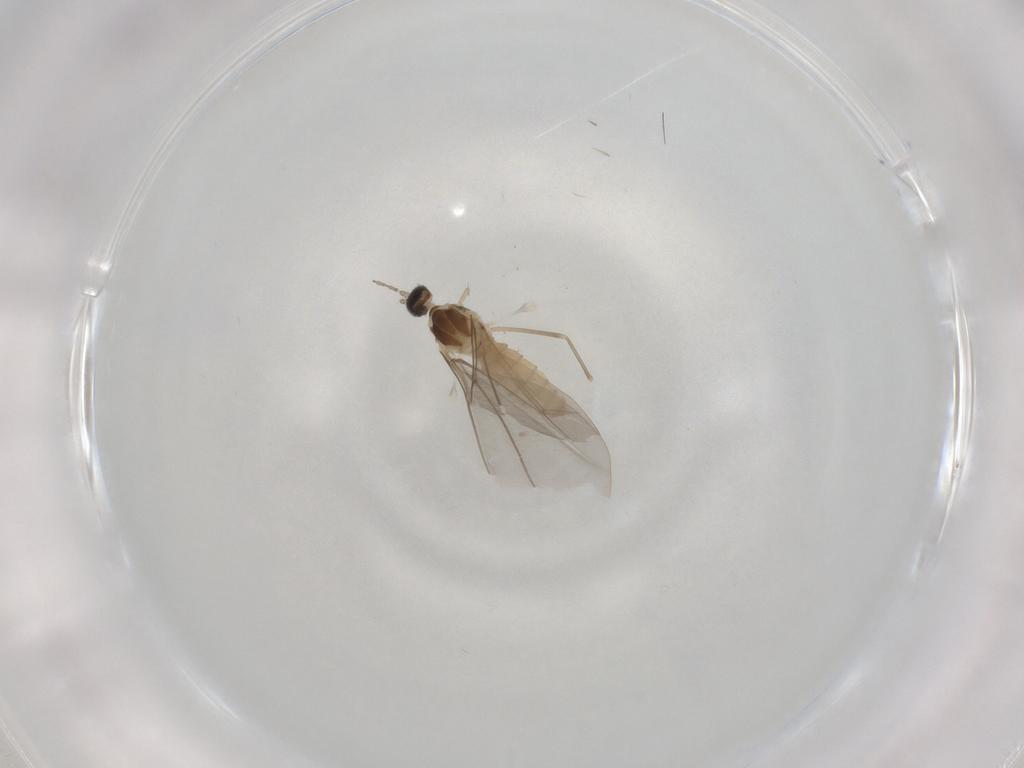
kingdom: Animalia
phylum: Arthropoda
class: Insecta
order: Diptera
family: Cecidomyiidae
